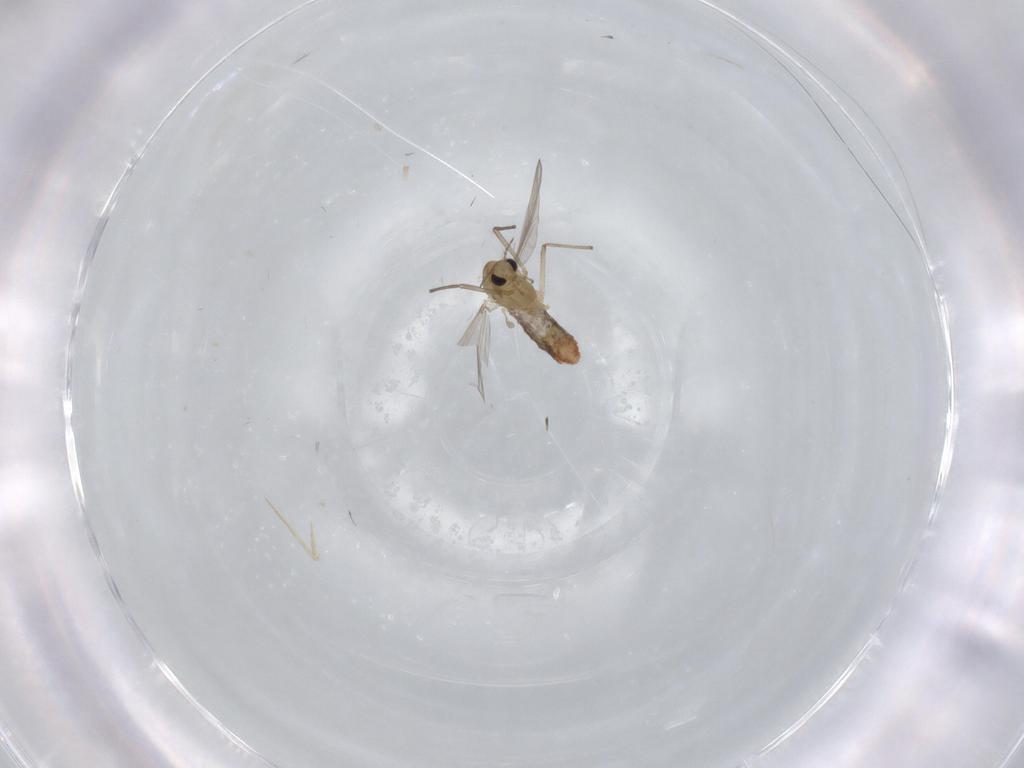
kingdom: Animalia
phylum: Arthropoda
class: Insecta
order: Diptera
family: Chironomidae
